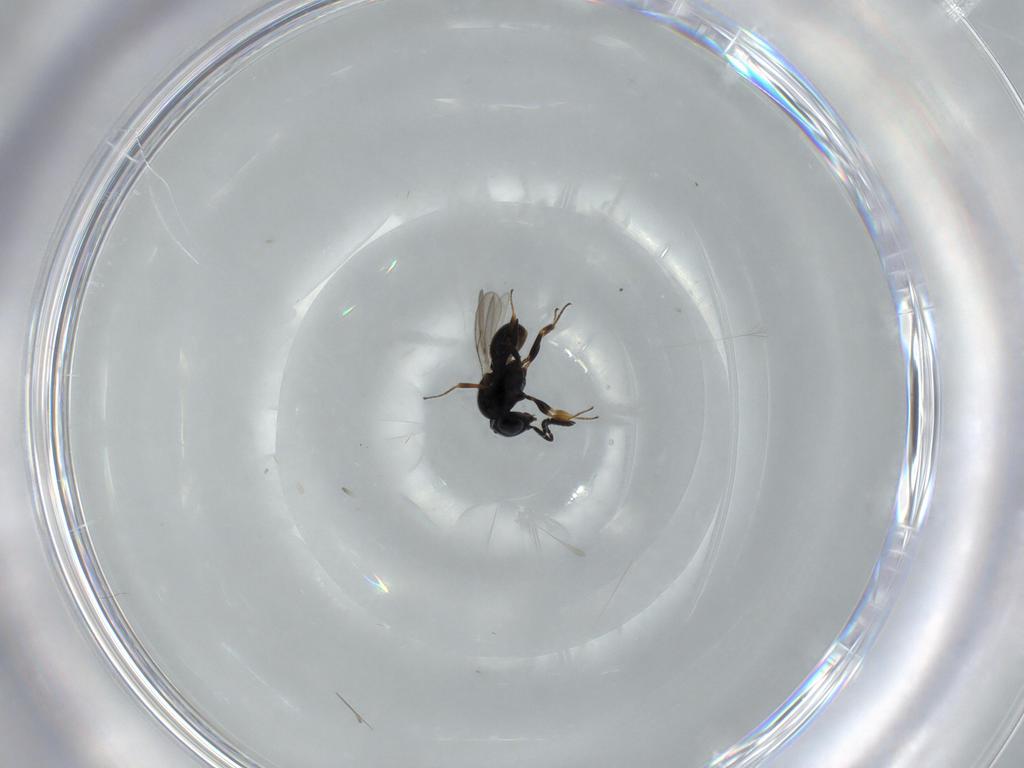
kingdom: Animalia
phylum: Arthropoda
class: Insecta
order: Hymenoptera
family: Scelionidae
